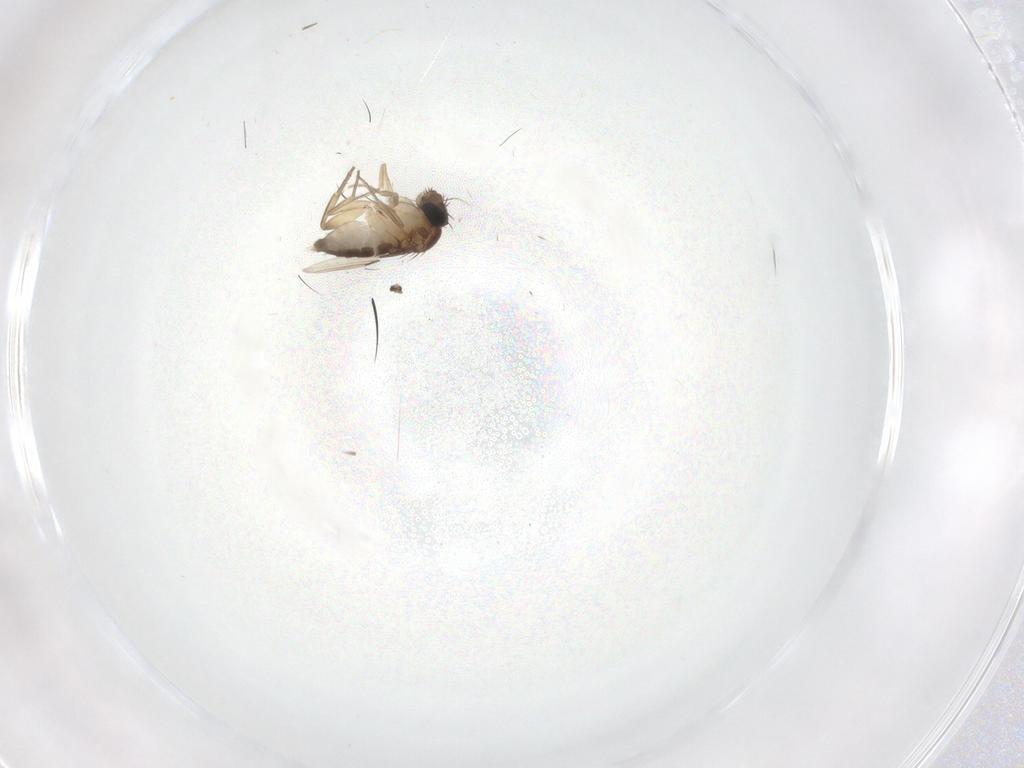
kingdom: Animalia
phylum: Arthropoda
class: Insecta
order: Diptera
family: Phoridae
